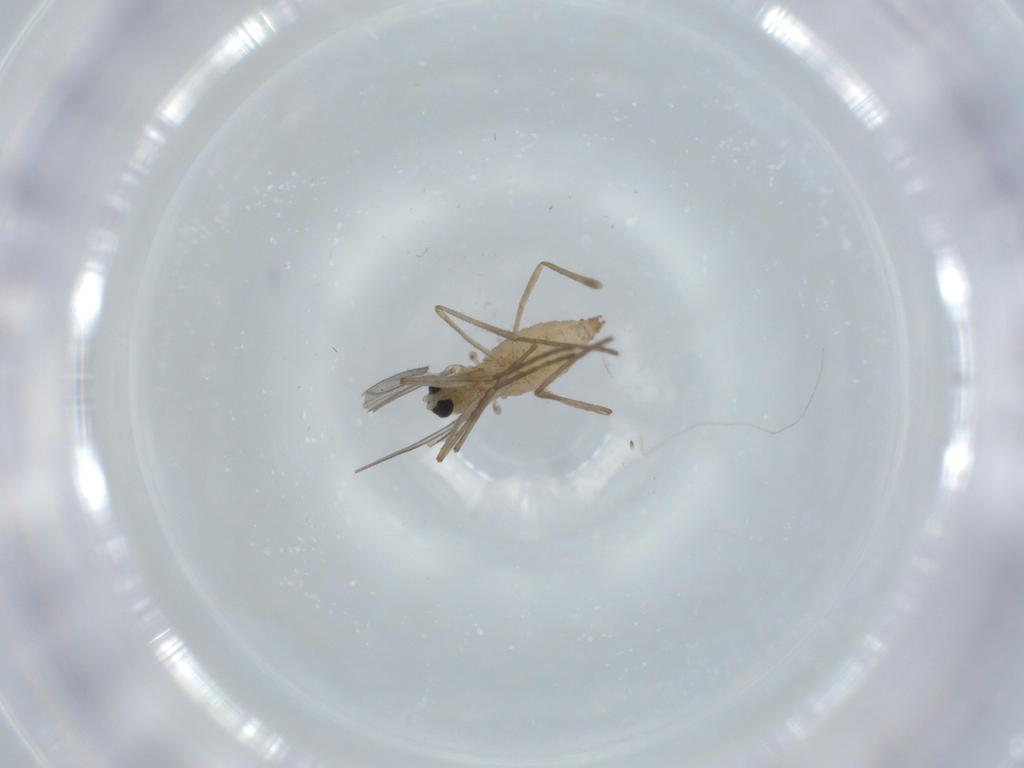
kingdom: Animalia
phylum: Arthropoda
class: Insecta
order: Diptera
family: Cecidomyiidae
